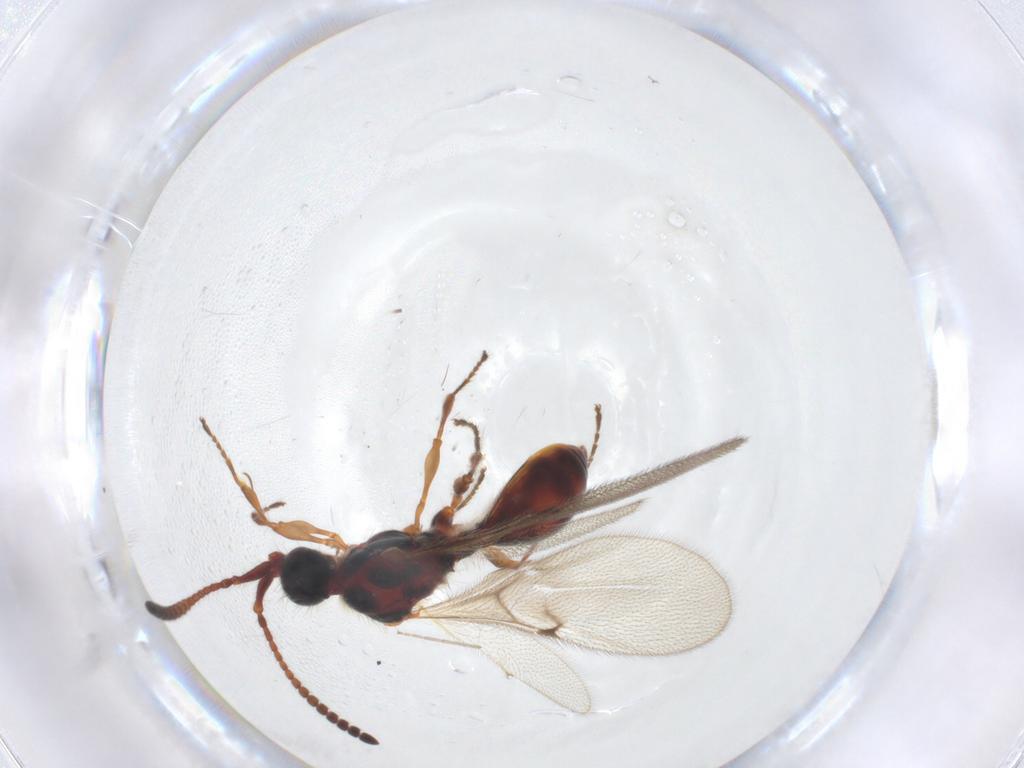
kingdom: Animalia
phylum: Arthropoda
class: Insecta
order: Hymenoptera
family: Diapriidae
